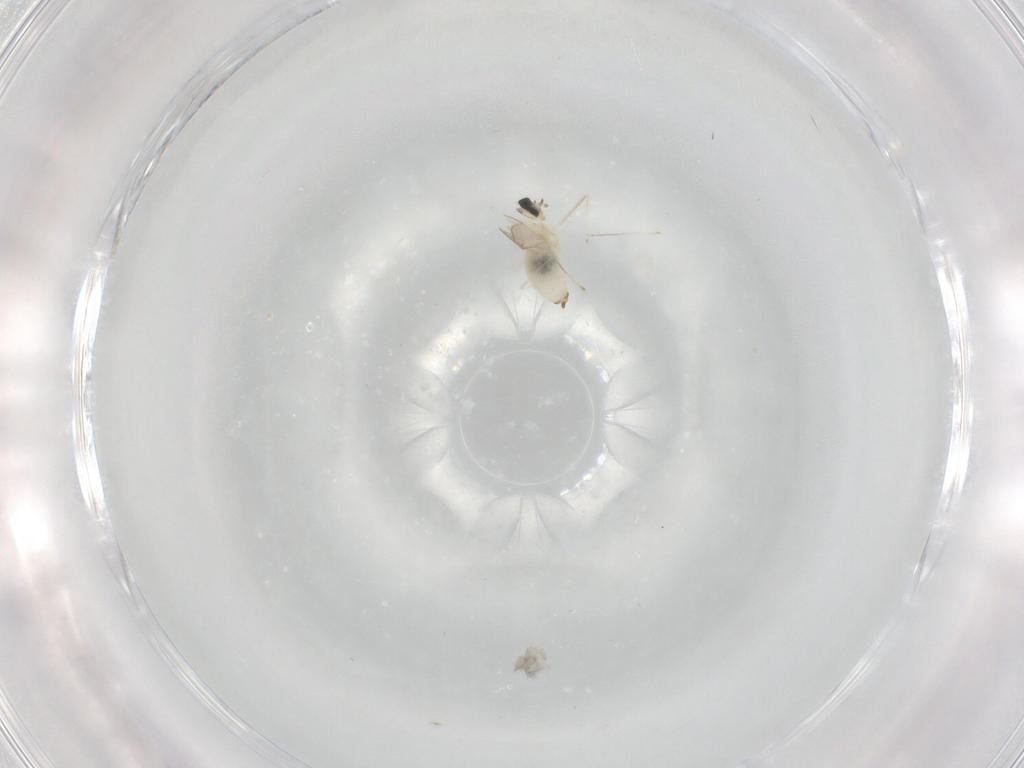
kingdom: Animalia
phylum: Arthropoda
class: Insecta
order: Diptera
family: Cecidomyiidae
